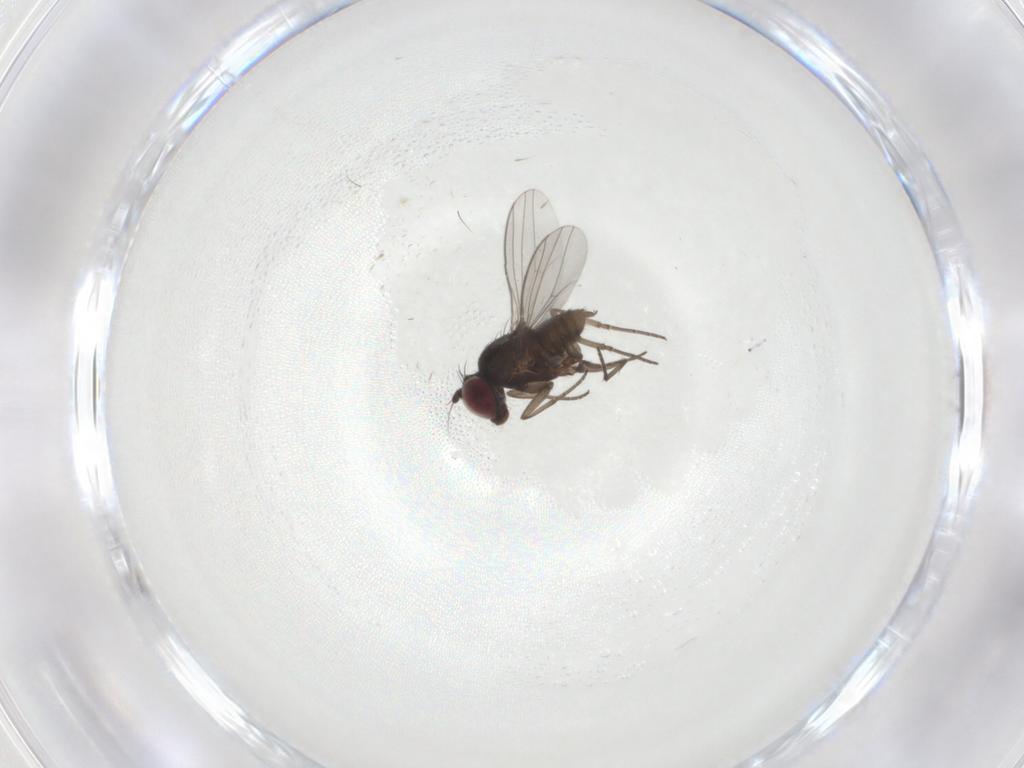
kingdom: Animalia
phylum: Arthropoda
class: Insecta
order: Diptera
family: Dolichopodidae
